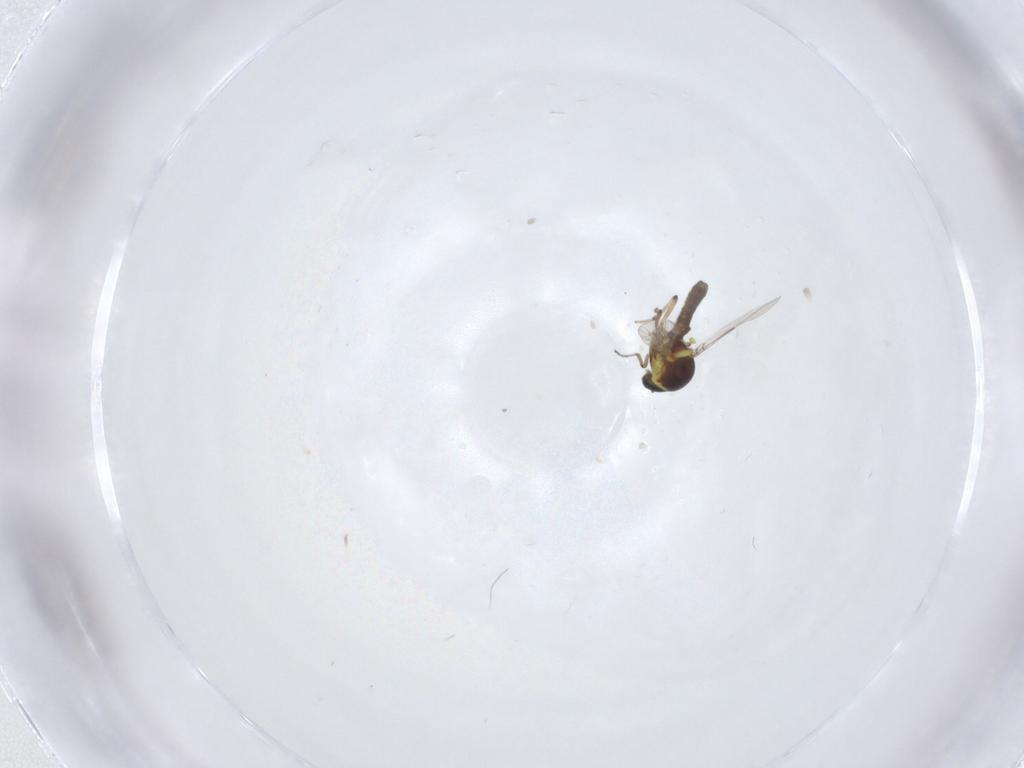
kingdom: Animalia
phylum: Arthropoda
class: Insecta
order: Diptera
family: Ceratopogonidae
